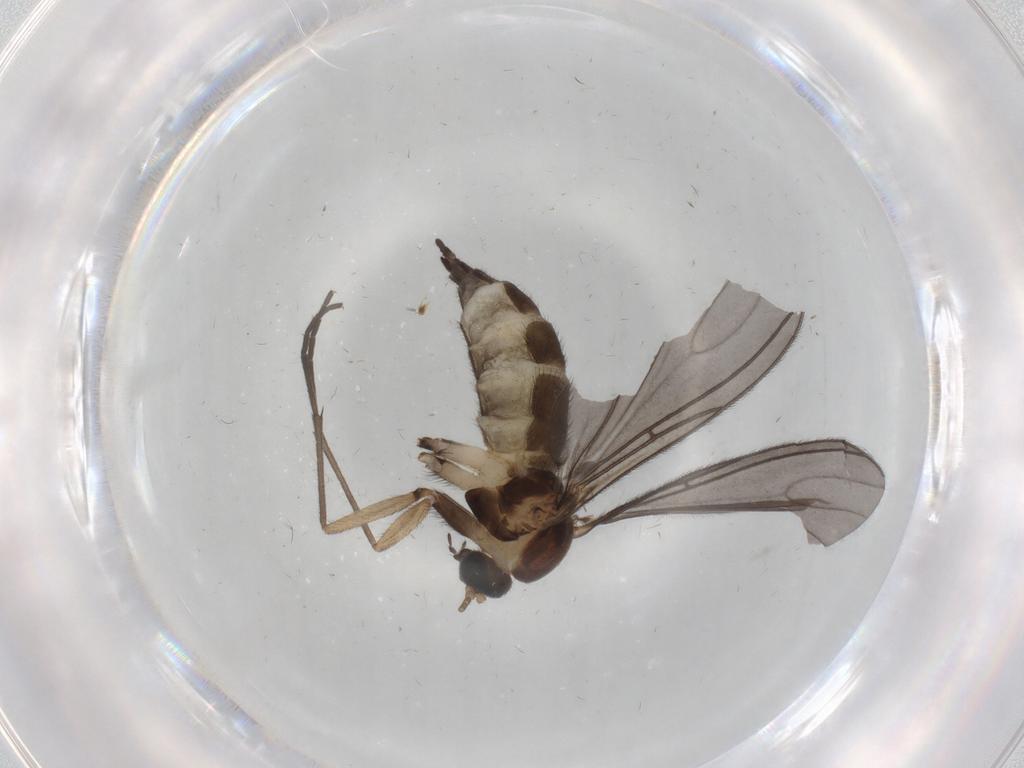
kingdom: Animalia
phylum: Arthropoda
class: Insecta
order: Diptera
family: Sciaridae
